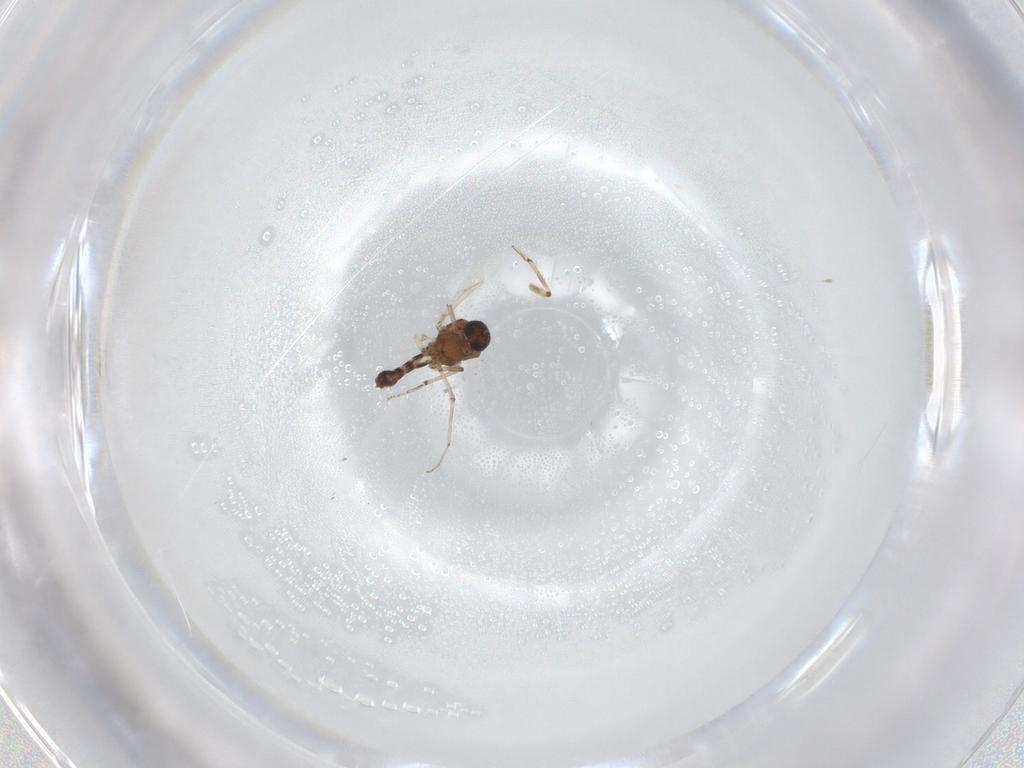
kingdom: Animalia
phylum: Arthropoda
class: Insecta
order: Diptera
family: Ceratopogonidae
